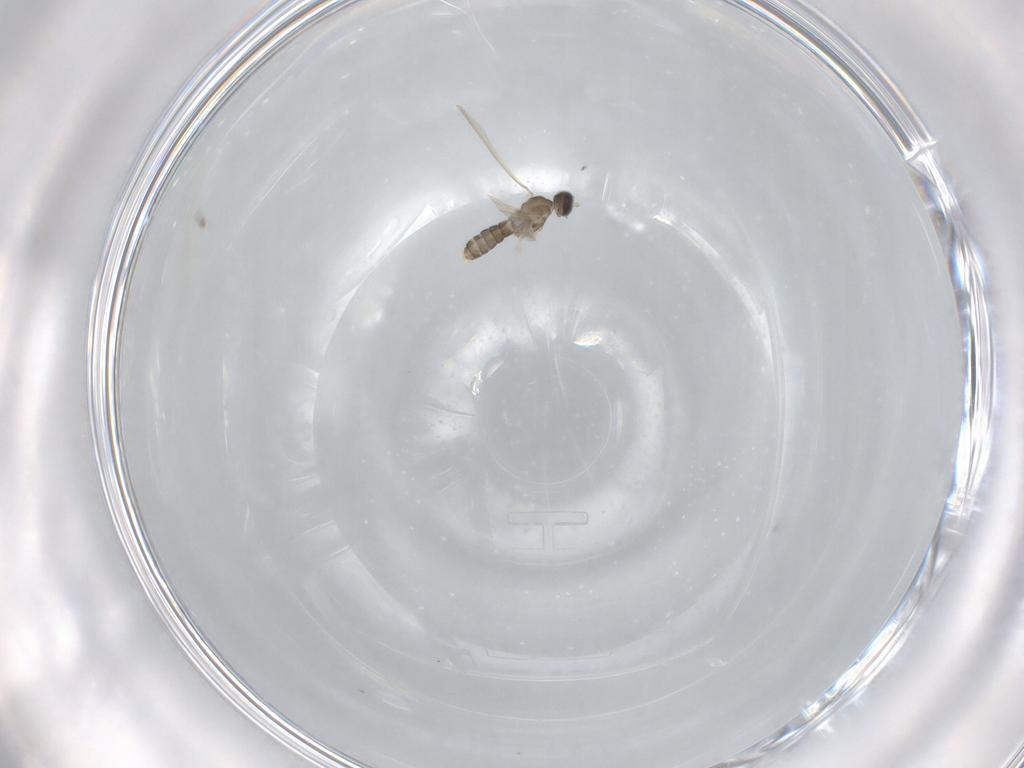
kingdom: Animalia
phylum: Arthropoda
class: Insecta
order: Diptera
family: Cecidomyiidae
